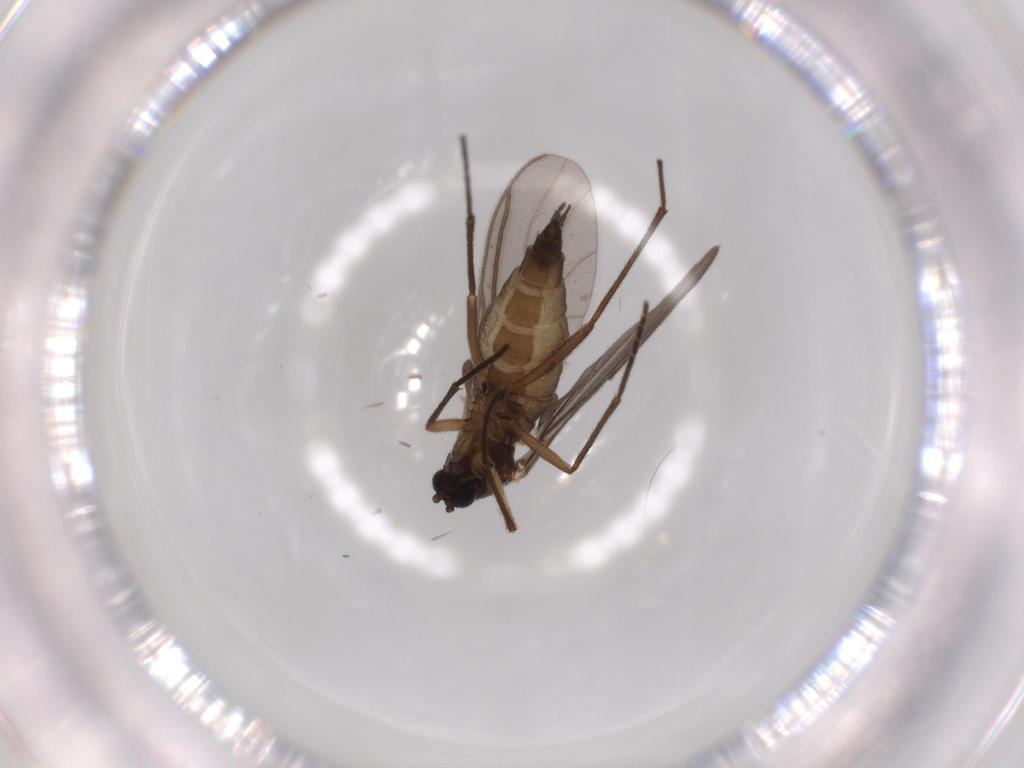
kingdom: Animalia
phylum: Arthropoda
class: Insecta
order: Diptera
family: Sciaridae
